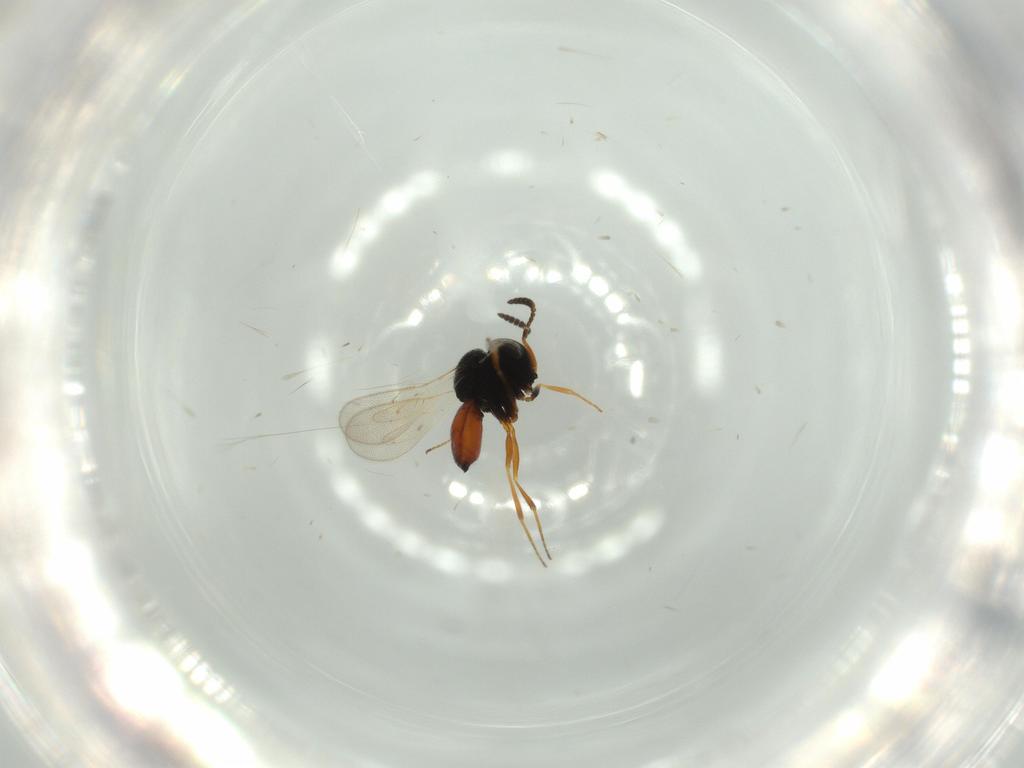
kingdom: Animalia
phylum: Arthropoda
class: Insecta
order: Hymenoptera
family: Scelionidae
